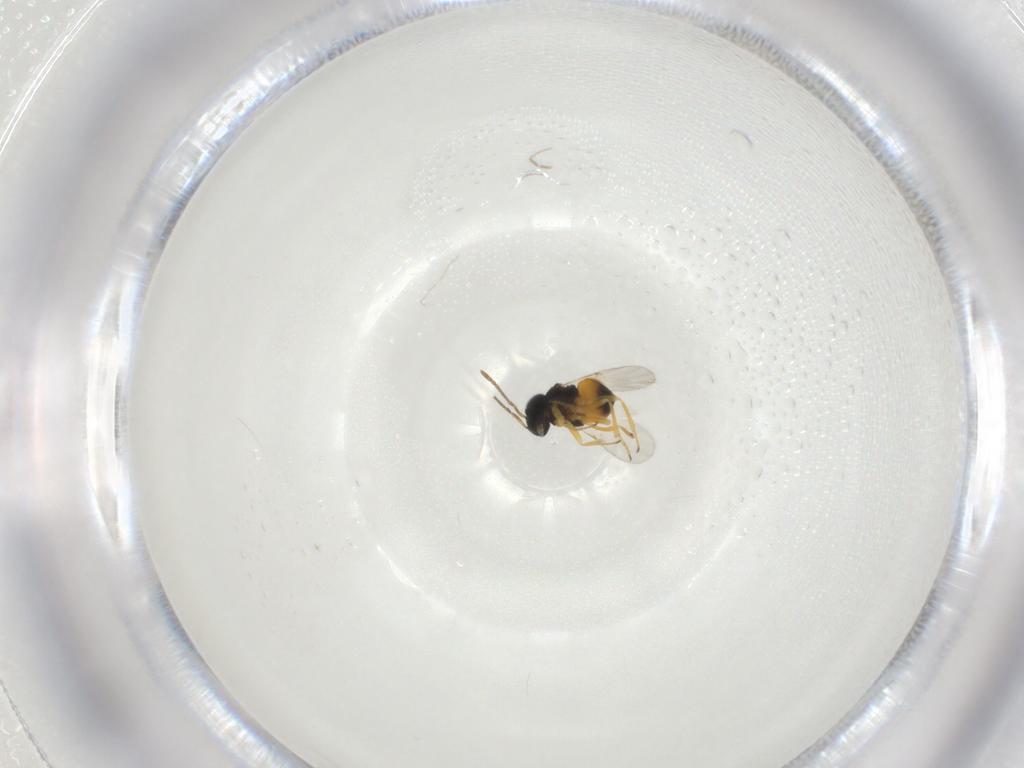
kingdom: Animalia
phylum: Arthropoda
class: Insecta
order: Hymenoptera
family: Encyrtidae
